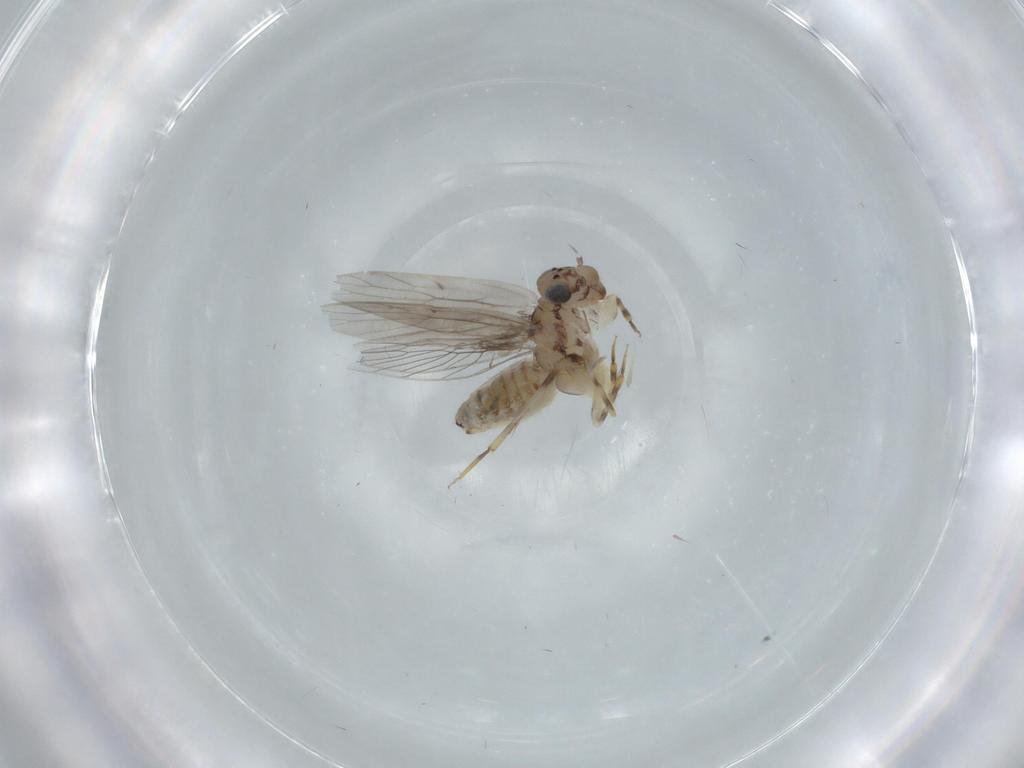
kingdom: Animalia
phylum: Arthropoda
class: Insecta
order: Psocodea
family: Lepidopsocidae
